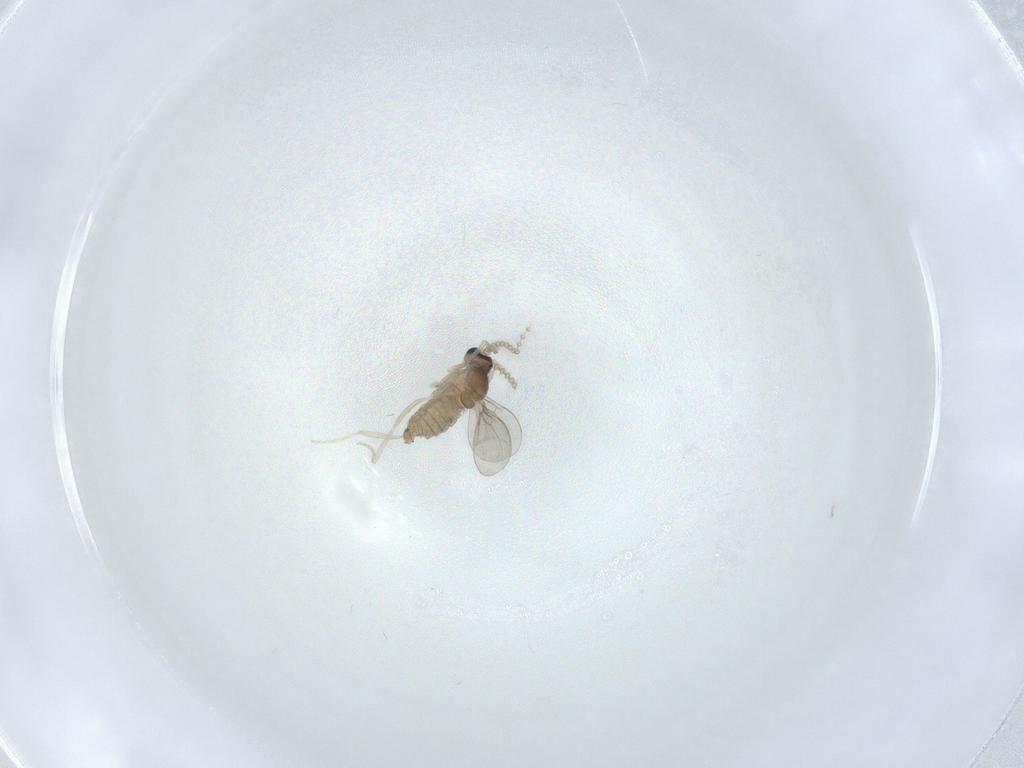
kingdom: Animalia
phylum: Arthropoda
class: Insecta
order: Diptera
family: Cecidomyiidae
